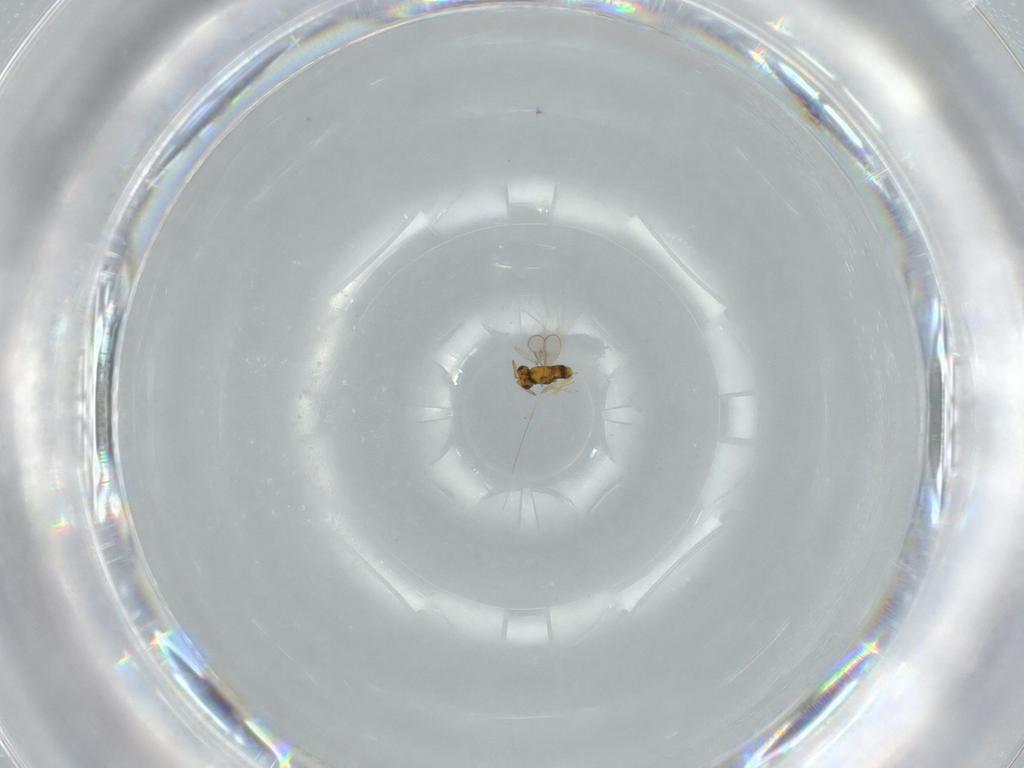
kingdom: Animalia
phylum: Arthropoda
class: Insecta
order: Hymenoptera
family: Aphelinidae
